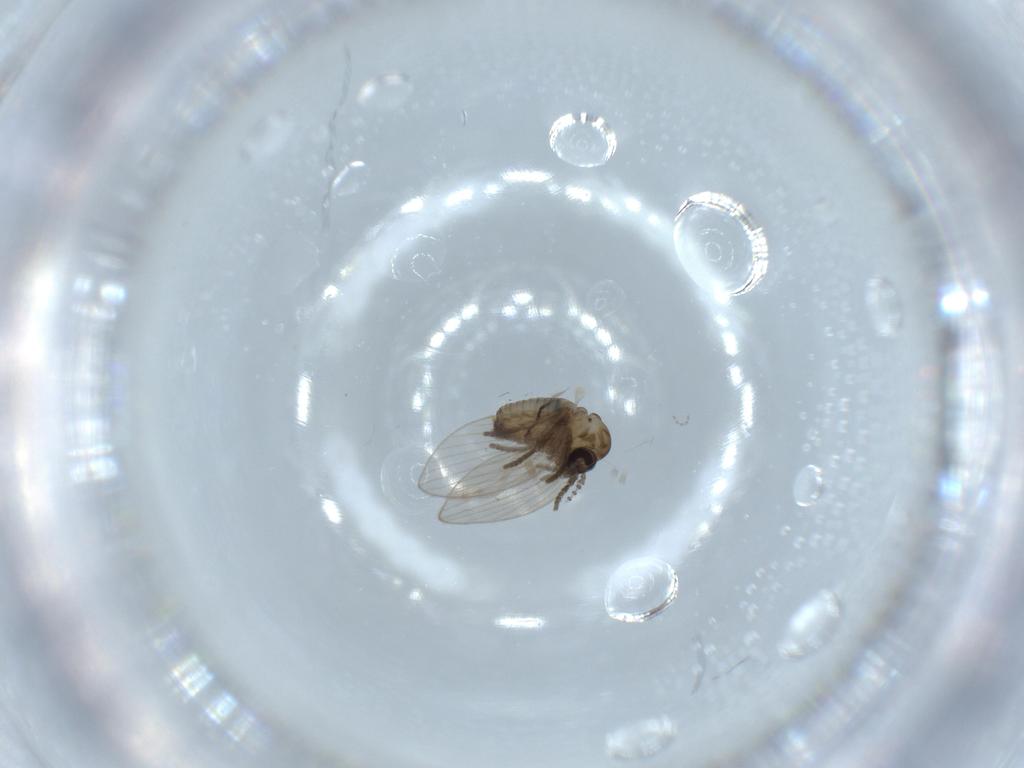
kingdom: Animalia
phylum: Arthropoda
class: Insecta
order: Diptera
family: Psychodidae
